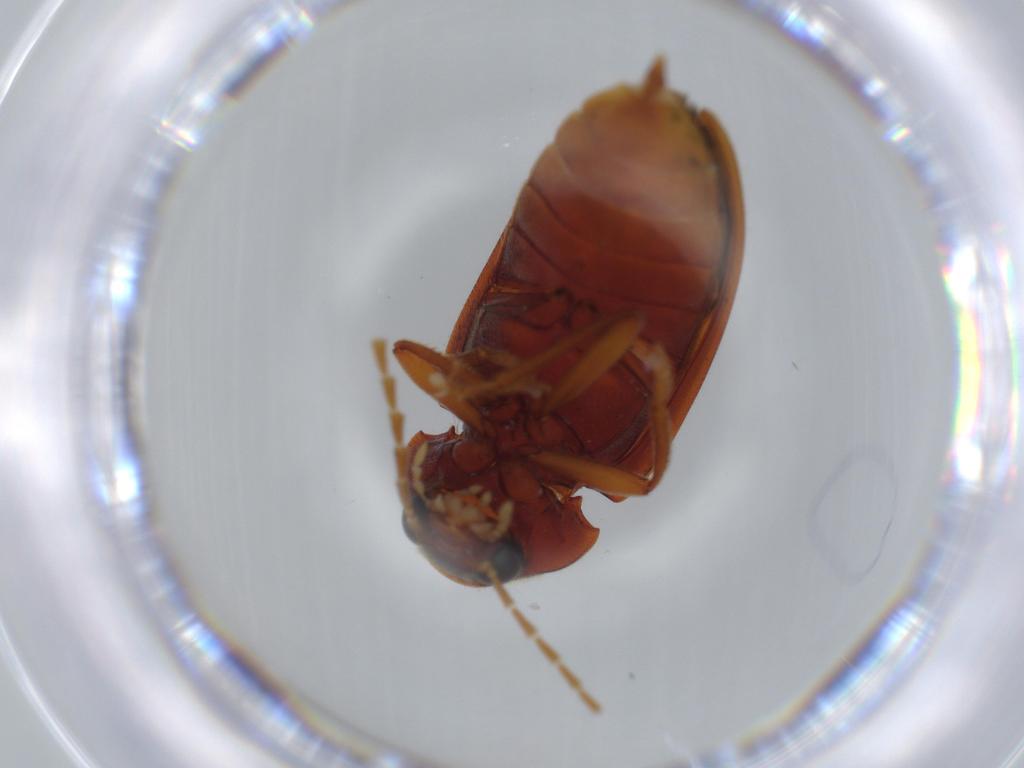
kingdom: Animalia
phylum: Arthropoda
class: Insecta
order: Coleoptera
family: Ptilodactylidae
